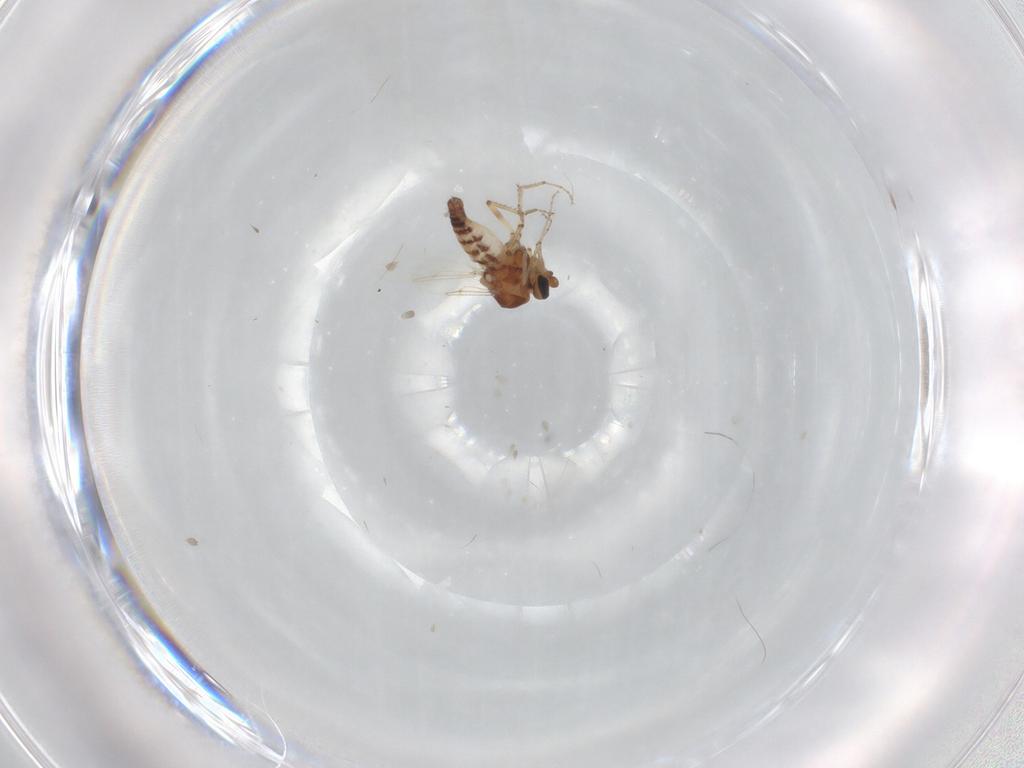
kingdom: Animalia
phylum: Arthropoda
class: Insecta
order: Diptera
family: Ceratopogonidae
